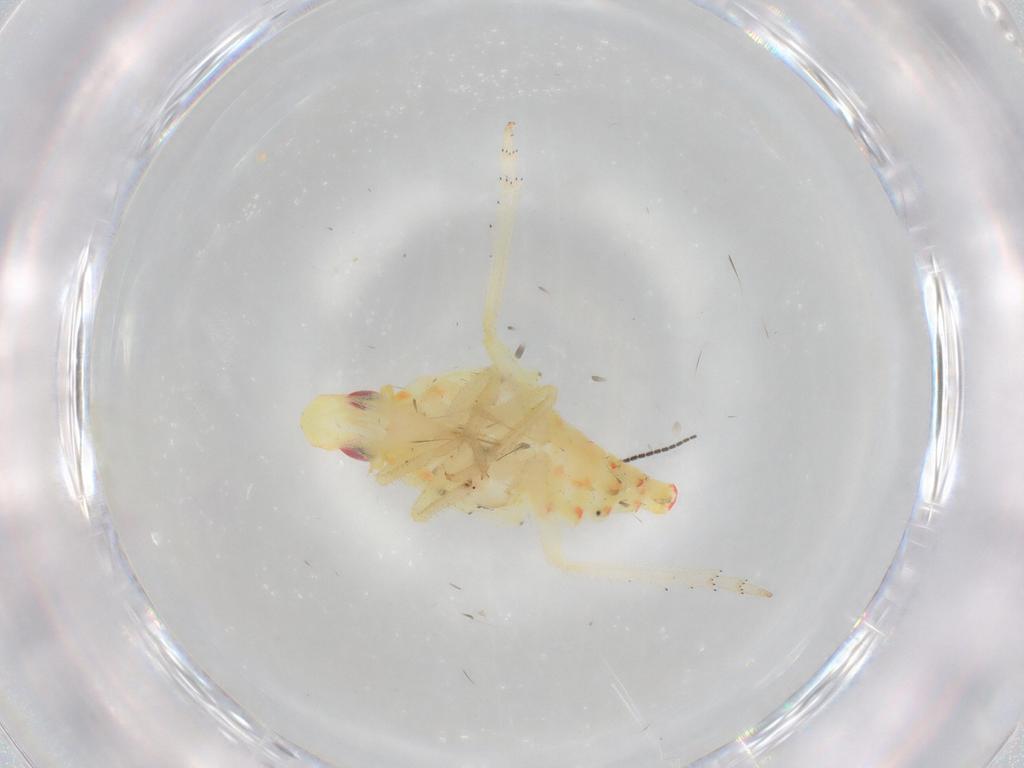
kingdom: Animalia
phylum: Arthropoda
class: Insecta
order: Hemiptera
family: Tropiduchidae
